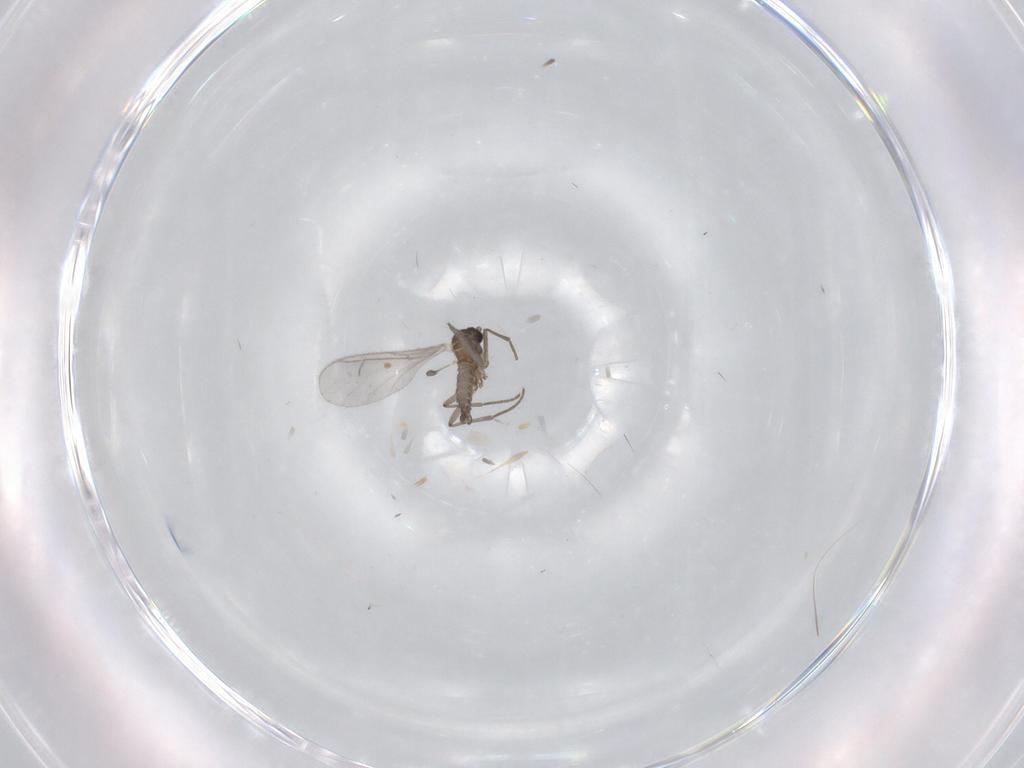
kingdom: Animalia
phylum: Arthropoda
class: Insecta
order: Diptera
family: Sciaridae
